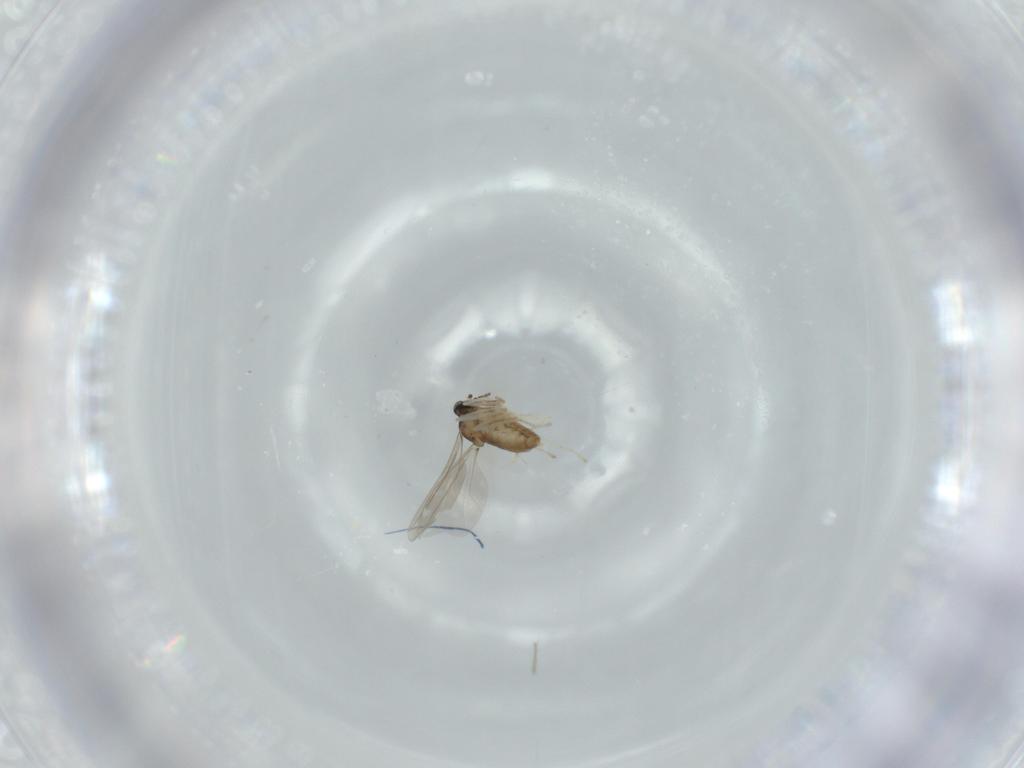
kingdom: Animalia
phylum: Arthropoda
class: Insecta
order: Diptera
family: Cecidomyiidae
